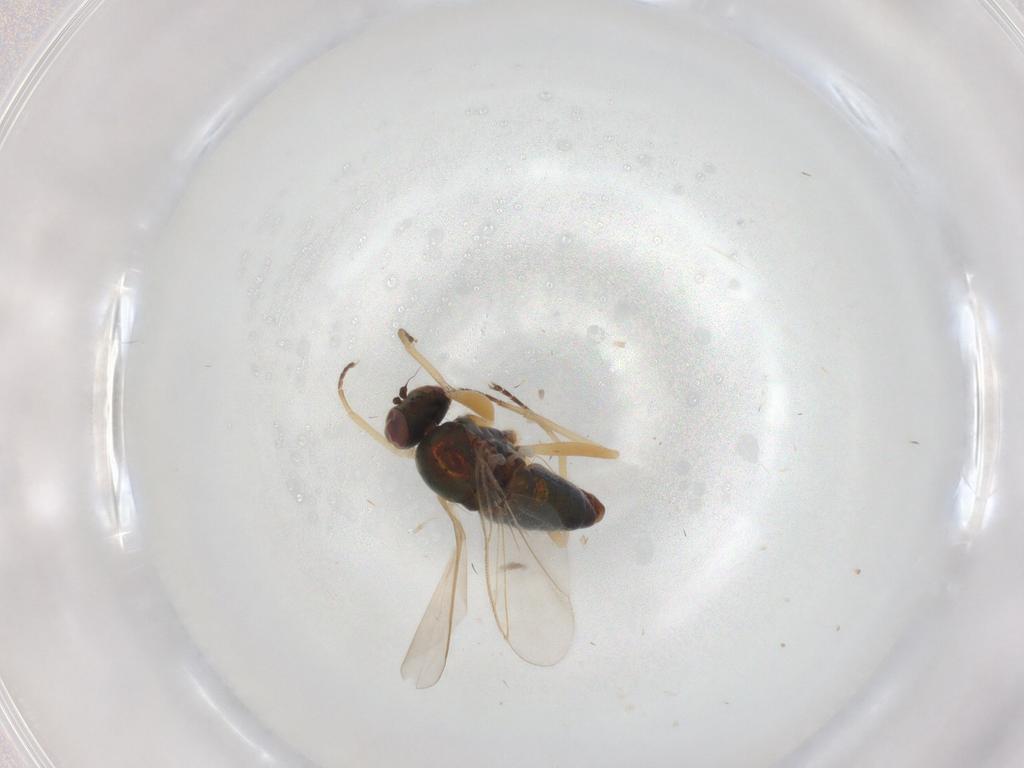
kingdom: Animalia
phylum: Arthropoda
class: Insecta
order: Diptera
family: Dolichopodidae
